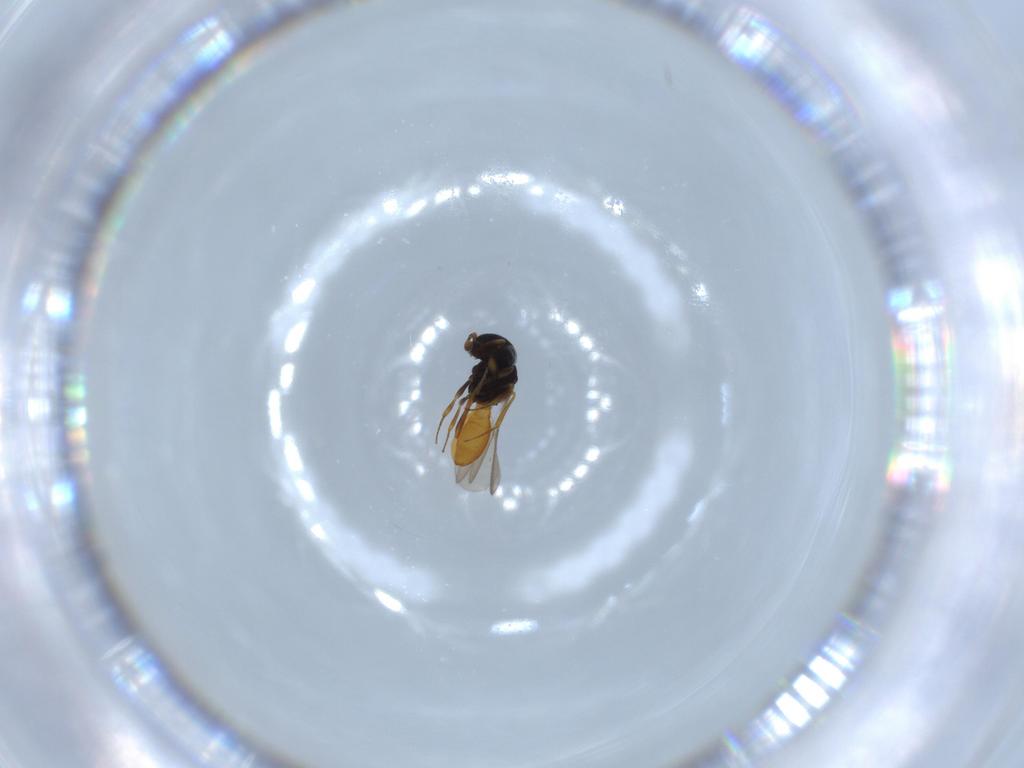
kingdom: Animalia
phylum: Arthropoda
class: Insecta
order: Hymenoptera
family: Scelionidae
